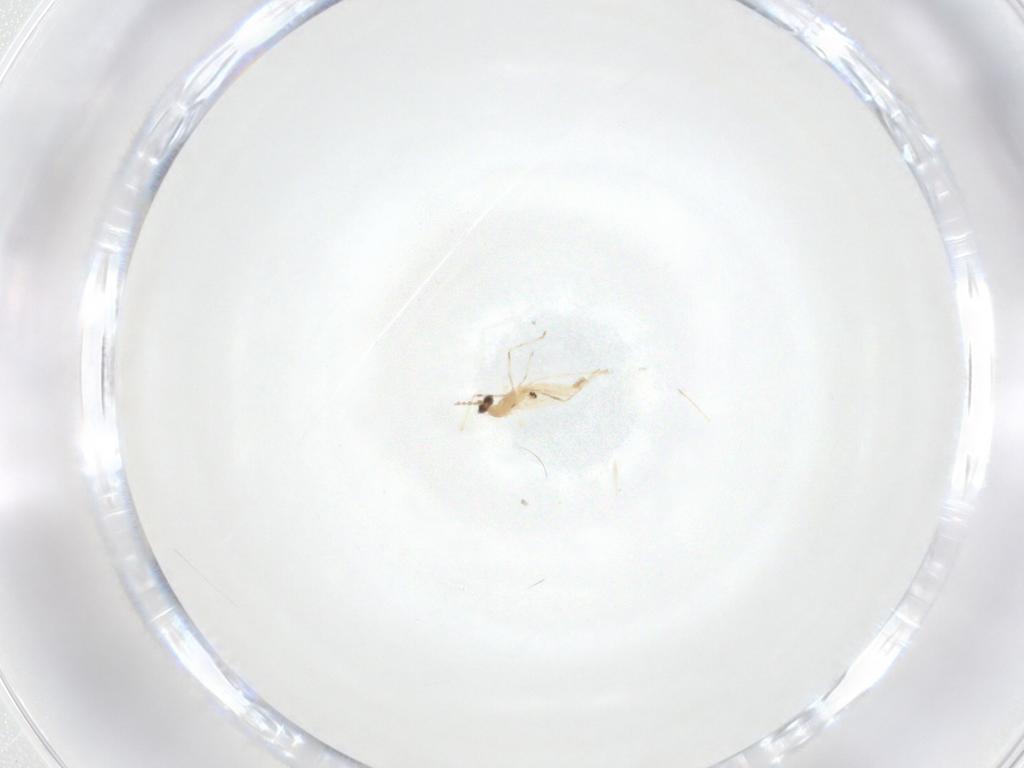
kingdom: Animalia
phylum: Arthropoda
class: Insecta
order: Diptera
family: Cecidomyiidae
